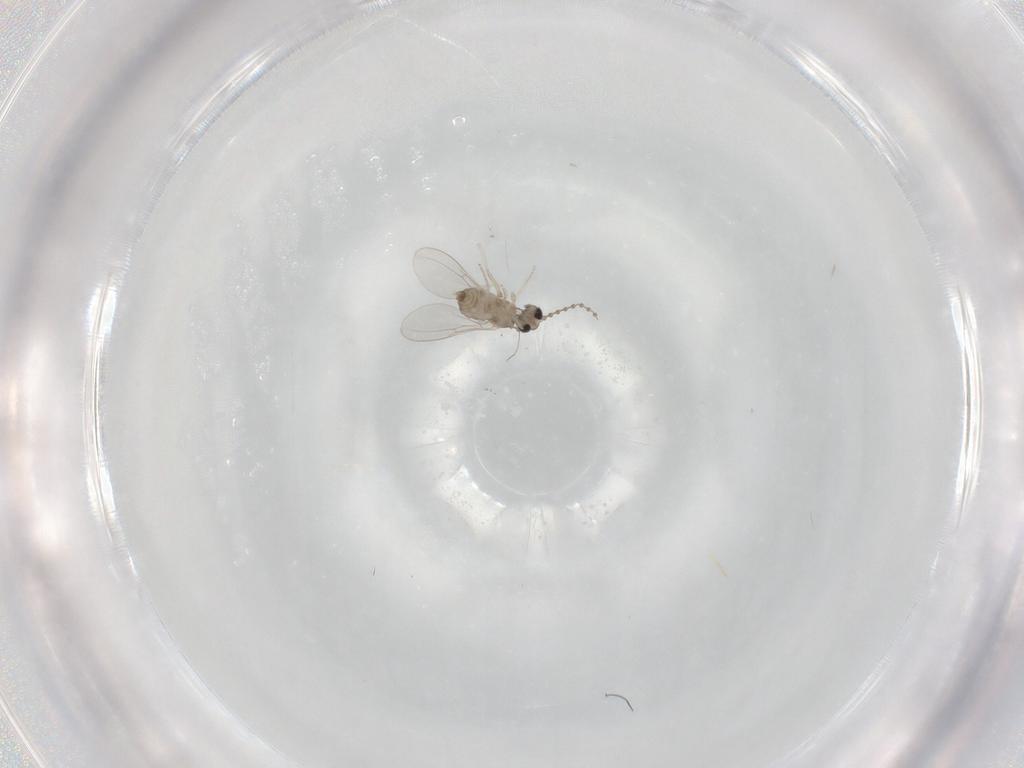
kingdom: Animalia
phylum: Arthropoda
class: Insecta
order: Diptera
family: Cecidomyiidae
